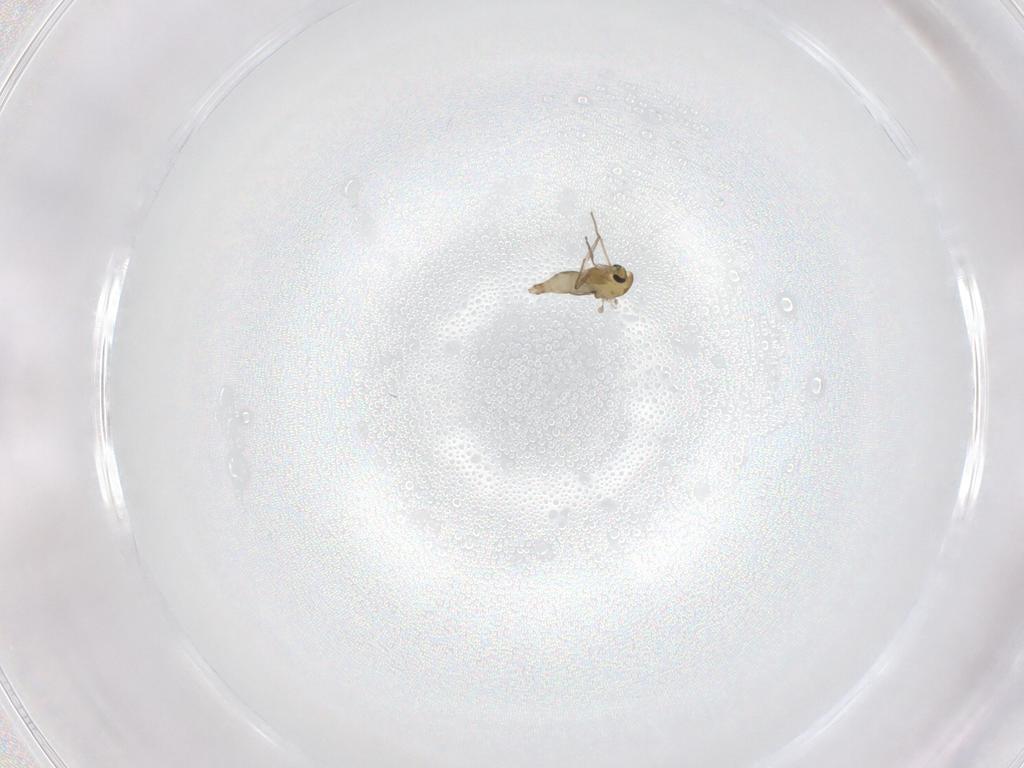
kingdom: Animalia
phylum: Arthropoda
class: Insecta
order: Diptera
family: Chironomidae
